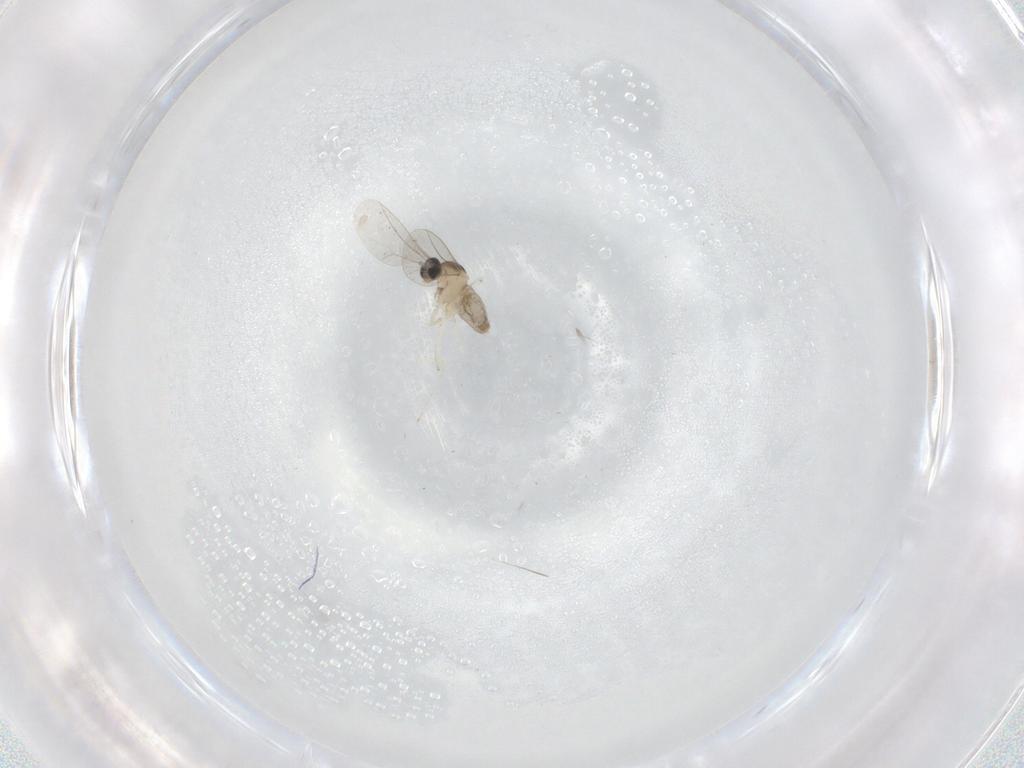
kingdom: Animalia
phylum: Arthropoda
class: Insecta
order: Diptera
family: Cecidomyiidae
